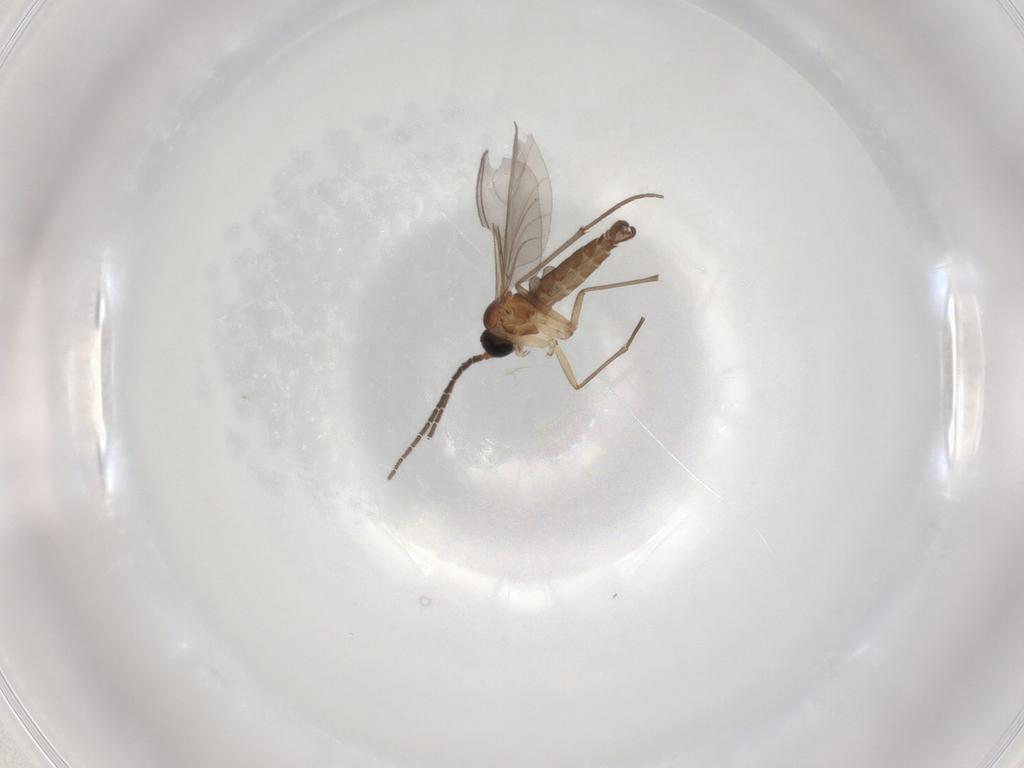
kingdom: Animalia
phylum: Arthropoda
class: Insecta
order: Diptera
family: Sciaridae
